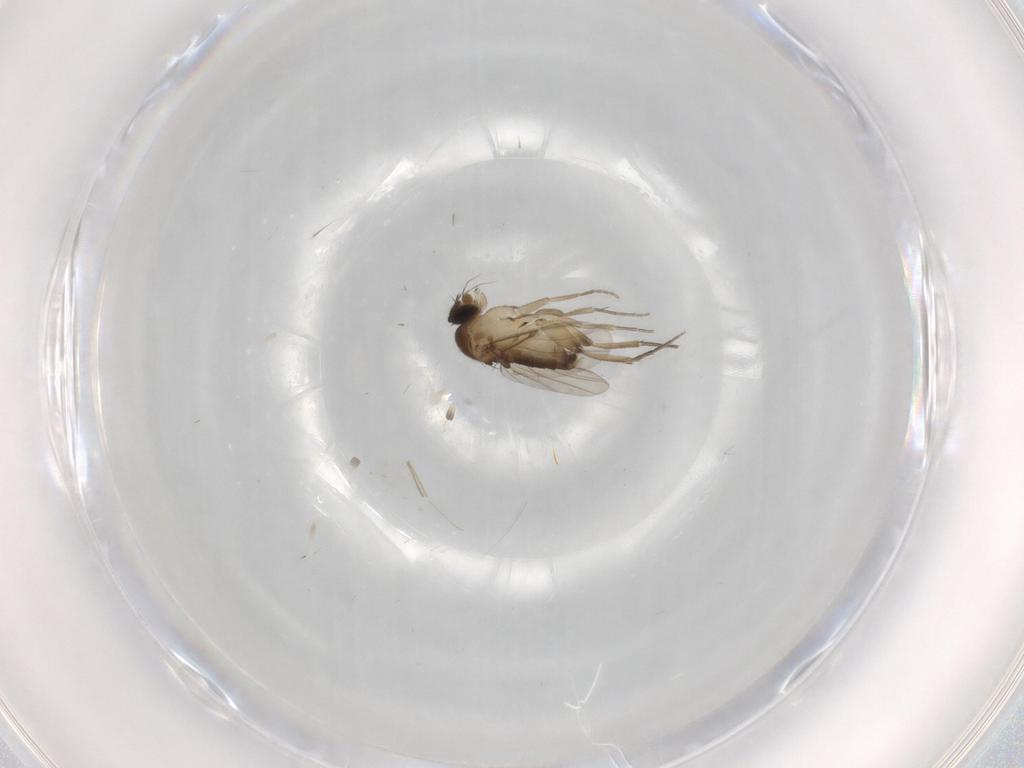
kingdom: Animalia
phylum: Arthropoda
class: Insecta
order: Diptera
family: Phoridae
